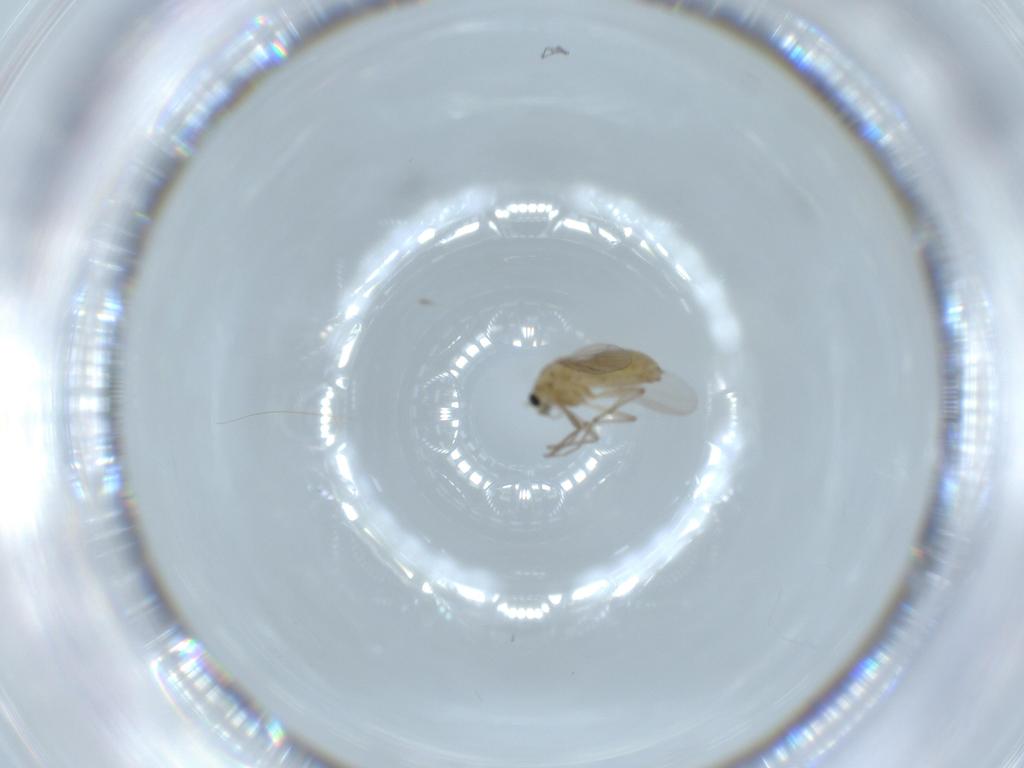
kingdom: Animalia
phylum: Arthropoda
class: Insecta
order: Diptera
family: Chironomidae
